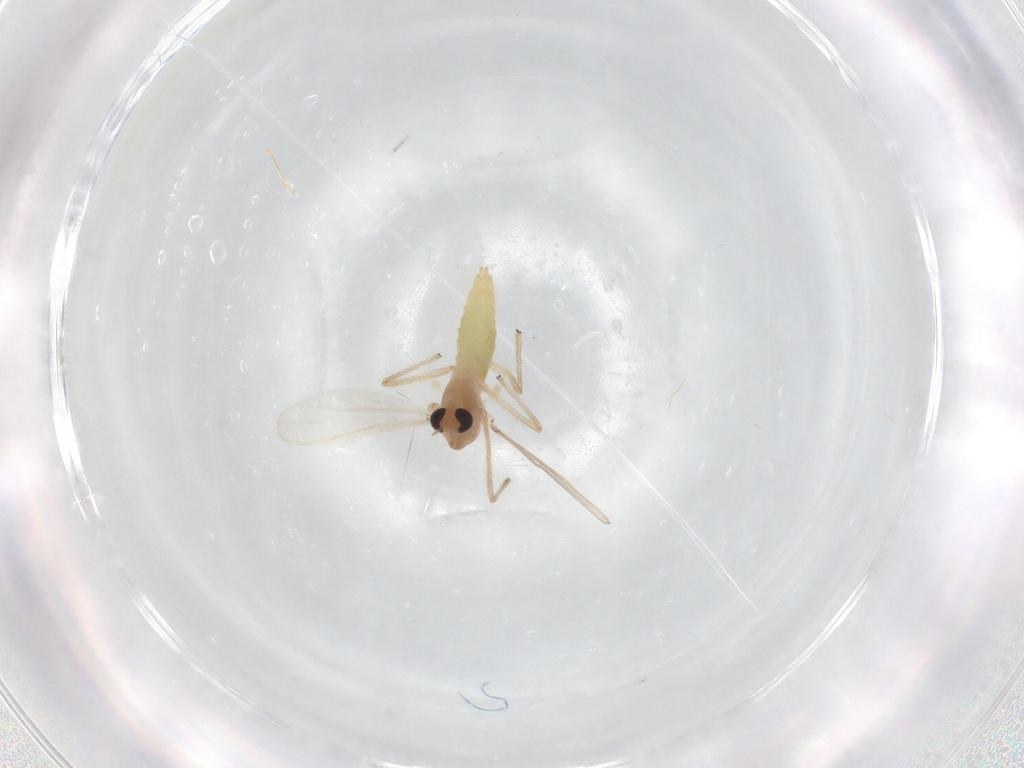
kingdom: Animalia
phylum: Arthropoda
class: Insecta
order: Diptera
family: Chironomidae
